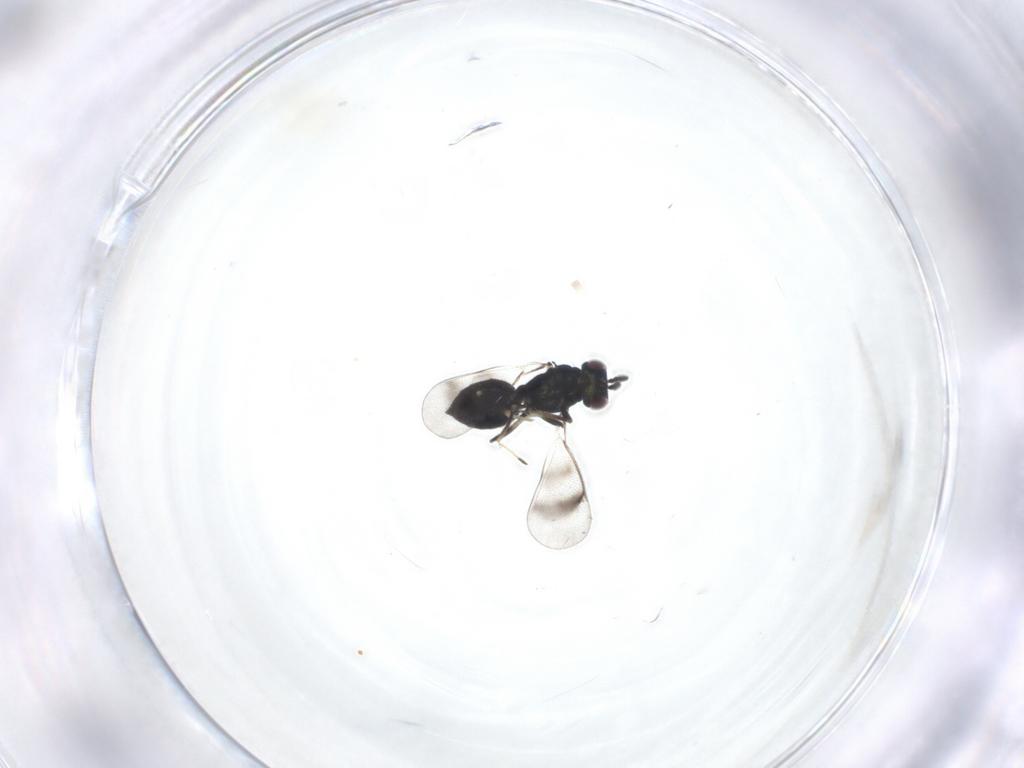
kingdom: Animalia
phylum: Arthropoda
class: Insecta
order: Hymenoptera
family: Eulophidae
